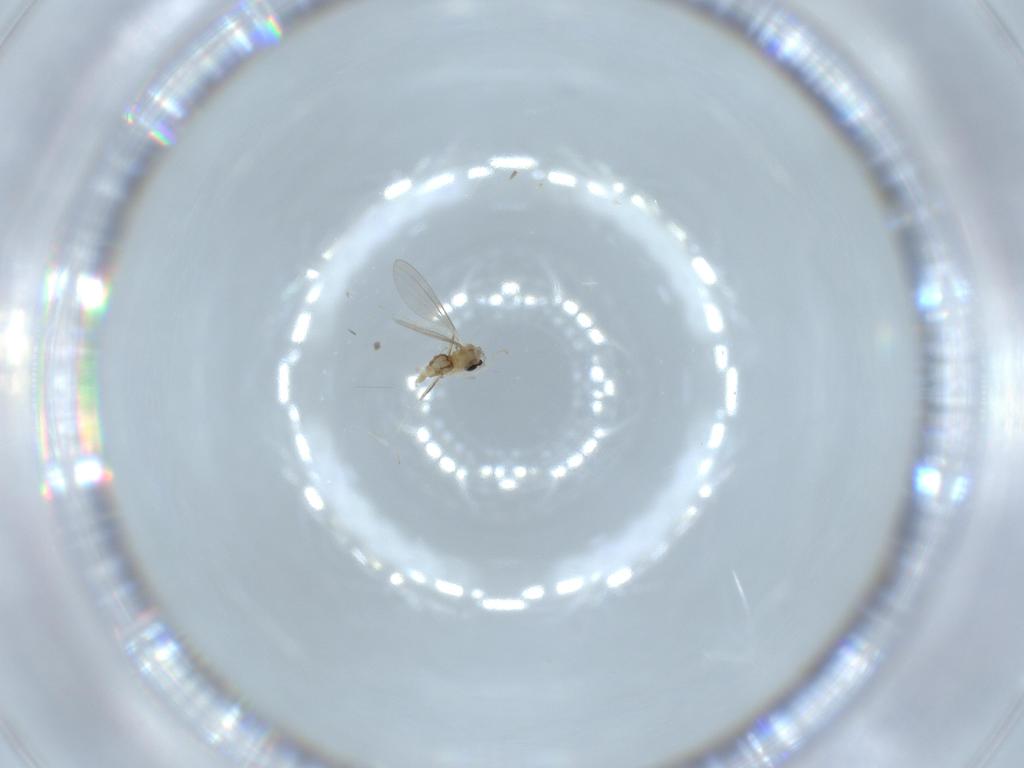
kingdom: Animalia
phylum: Arthropoda
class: Insecta
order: Diptera
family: Cecidomyiidae
